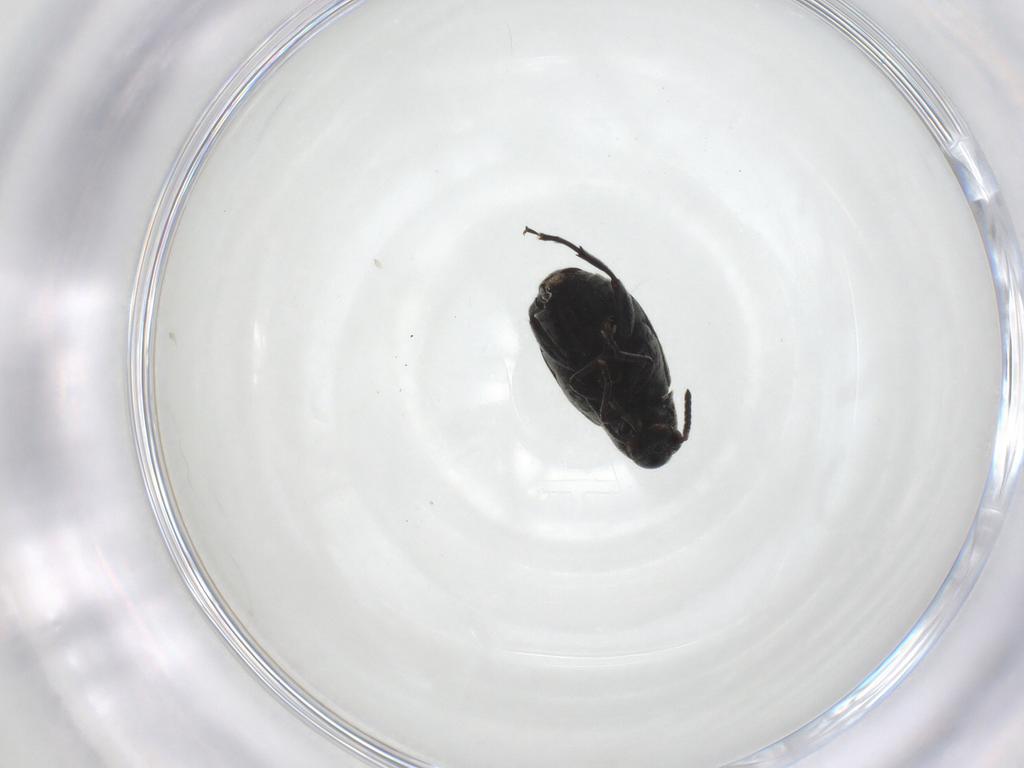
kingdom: Animalia
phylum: Arthropoda
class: Insecta
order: Coleoptera
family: Chrysomelidae
